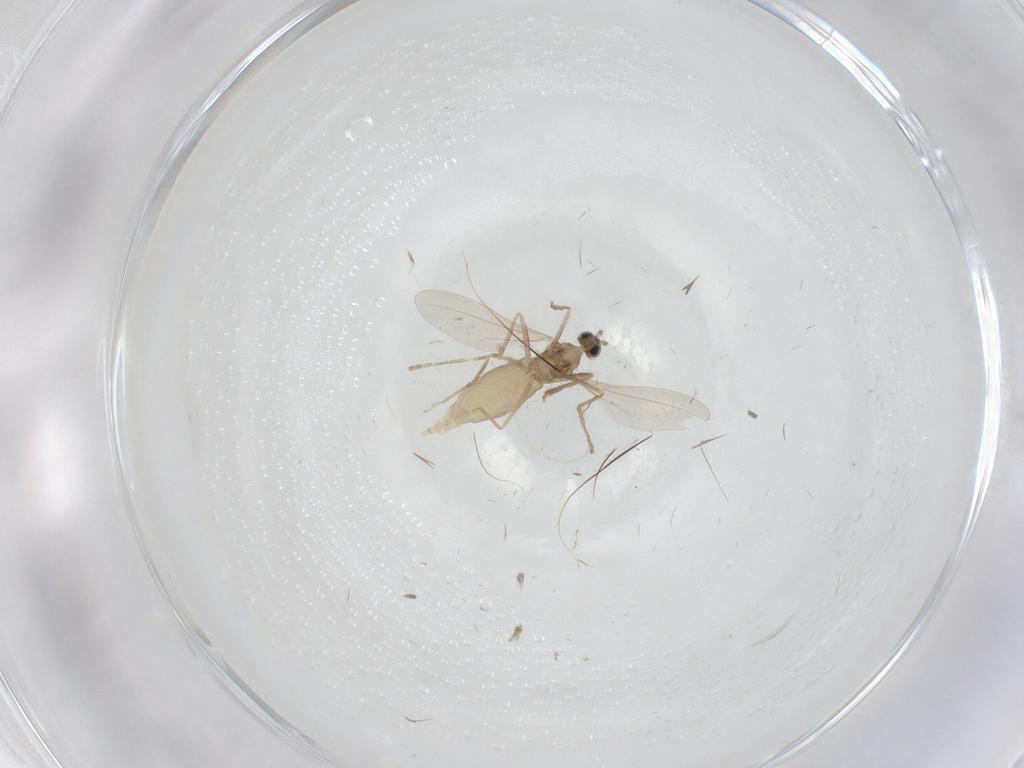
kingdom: Animalia
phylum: Arthropoda
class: Insecta
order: Diptera
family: Cecidomyiidae
